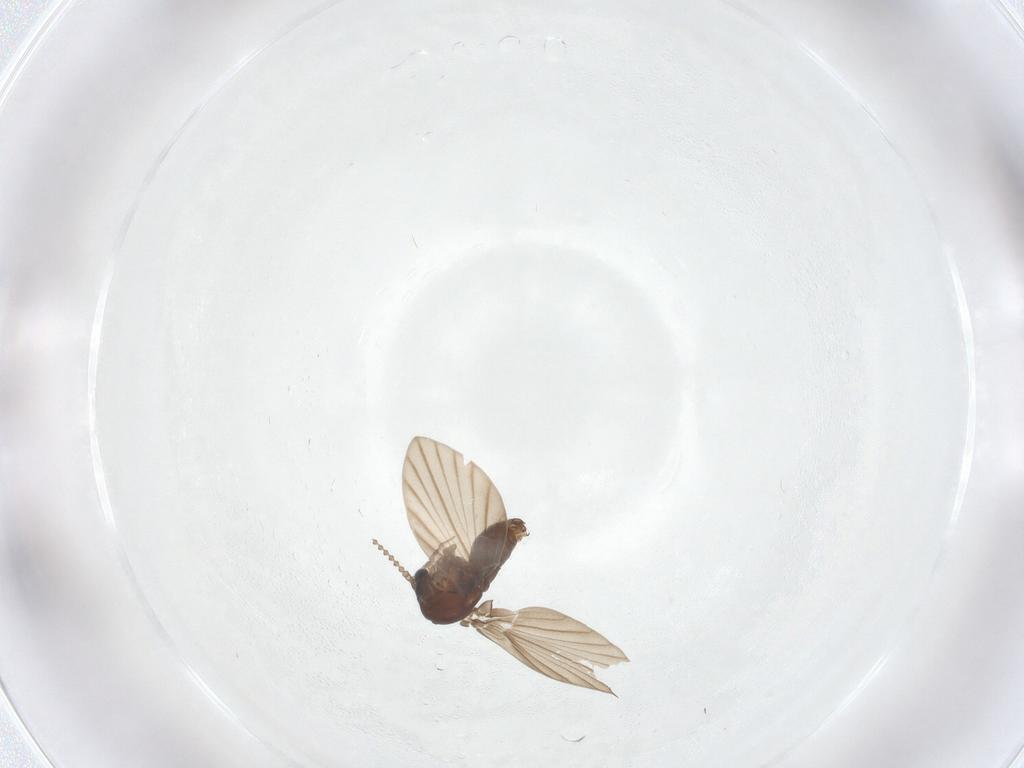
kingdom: Animalia
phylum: Arthropoda
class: Insecta
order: Diptera
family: Psychodidae
